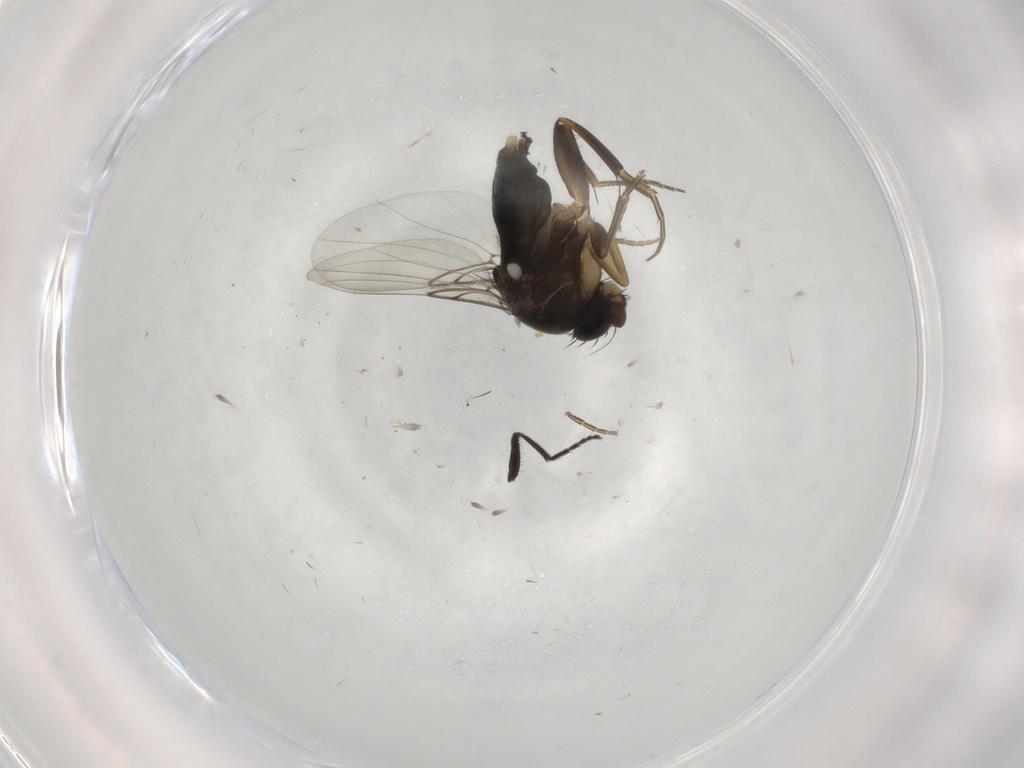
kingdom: Animalia
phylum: Arthropoda
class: Insecta
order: Diptera
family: Phoridae
